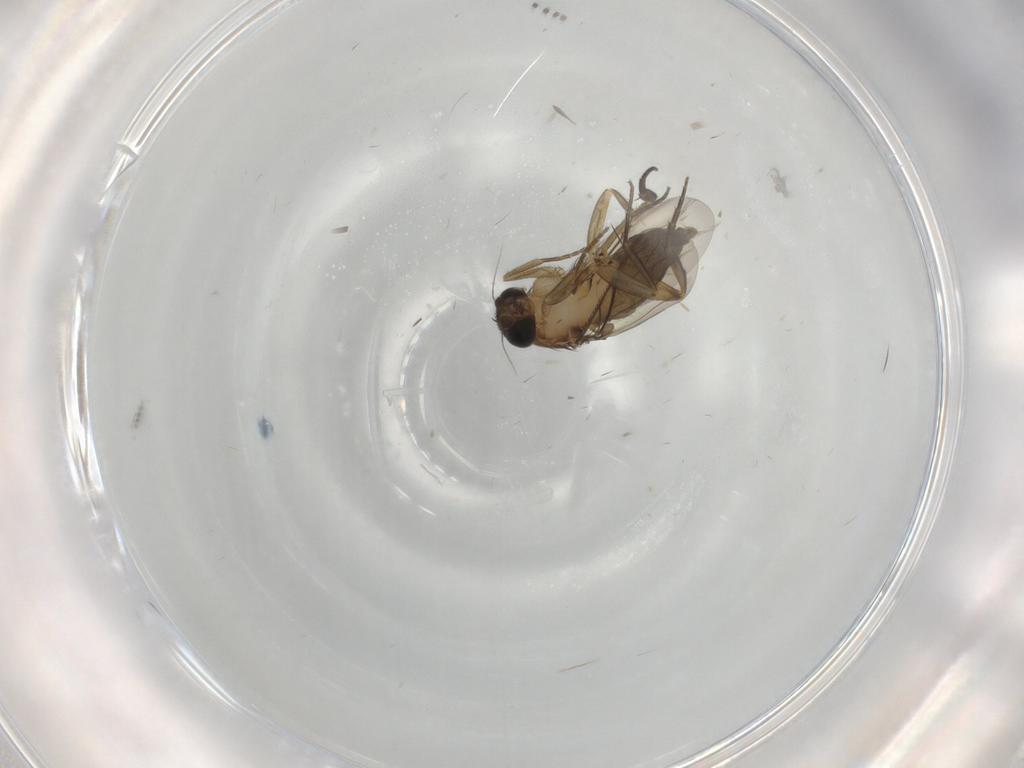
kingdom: Animalia
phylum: Arthropoda
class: Insecta
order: Diptera
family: Phoridae
